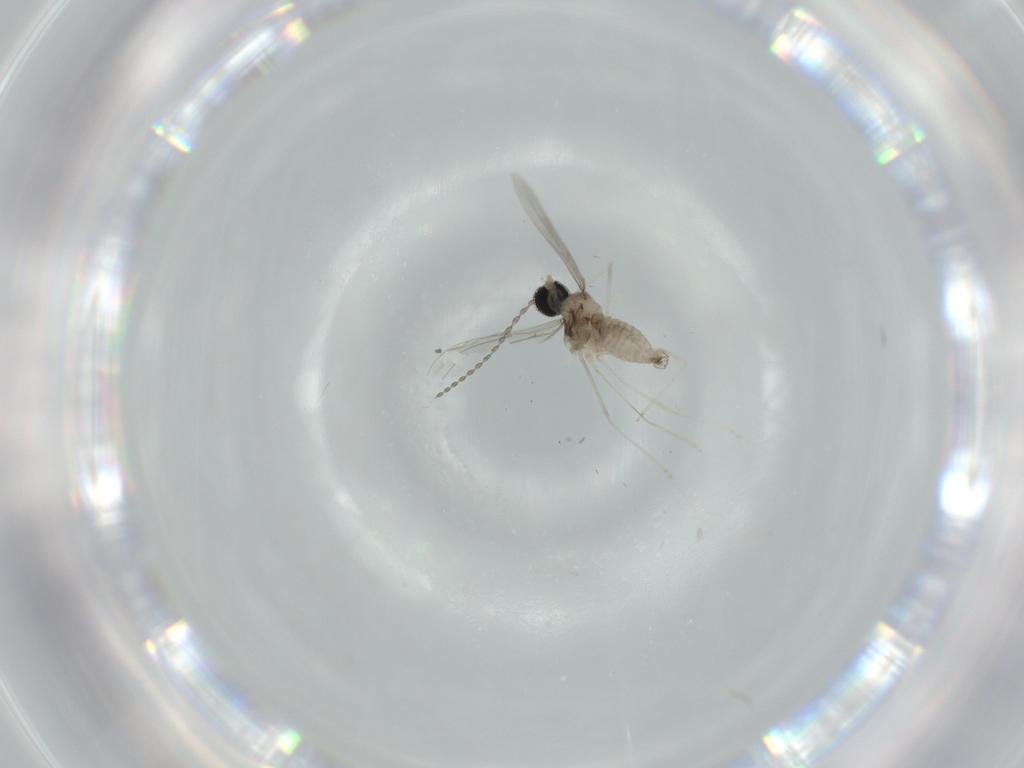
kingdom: Animalia
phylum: Arthropoda
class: Insecta
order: Diptera
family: Cecidomyiidae
